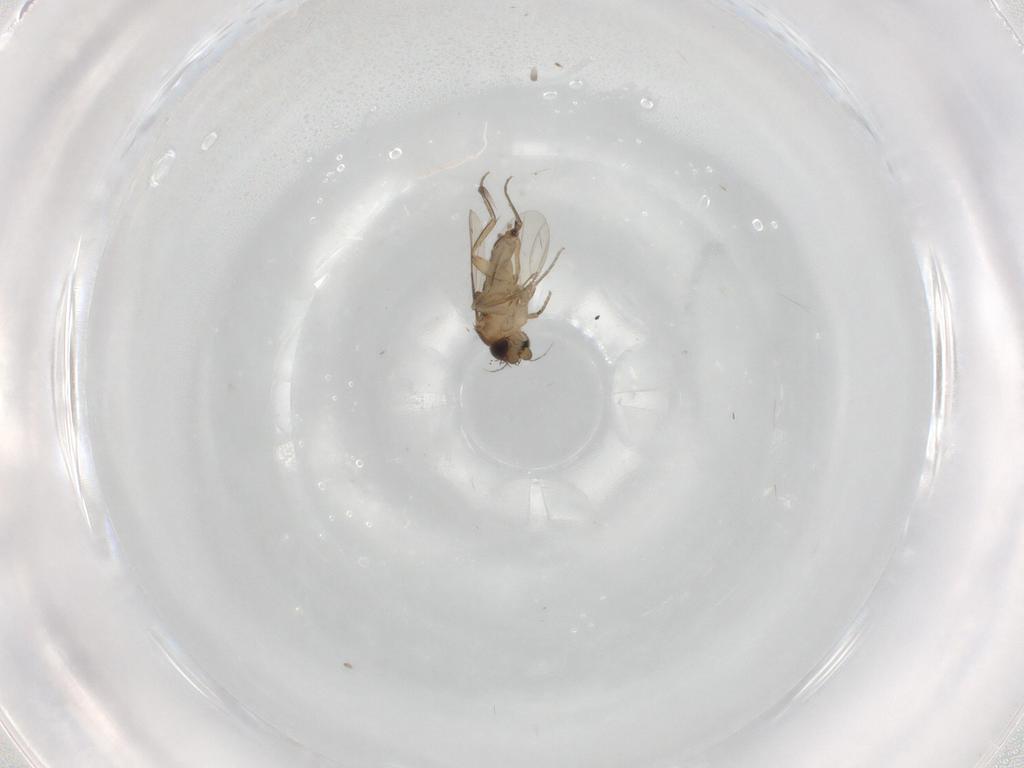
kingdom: Animalia
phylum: Arthropoda
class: Insecta
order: Diptera
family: Phoridae
